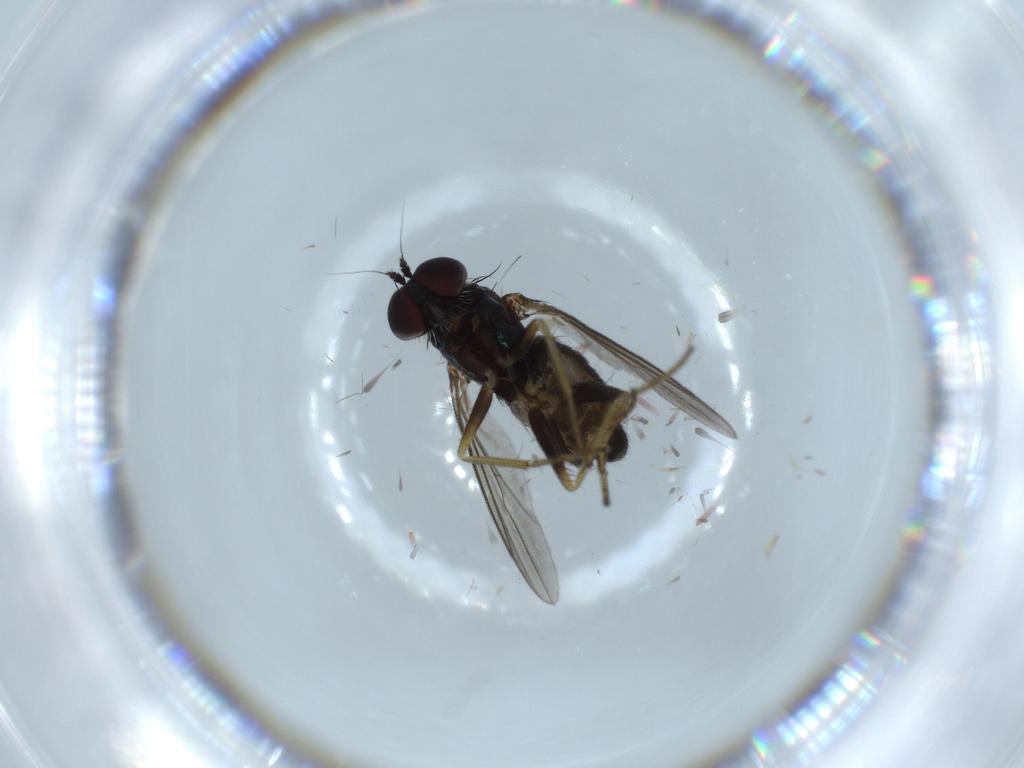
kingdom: Animalia
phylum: Arthropoda
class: Insecta
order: Diptera
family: Dolichopodidae
